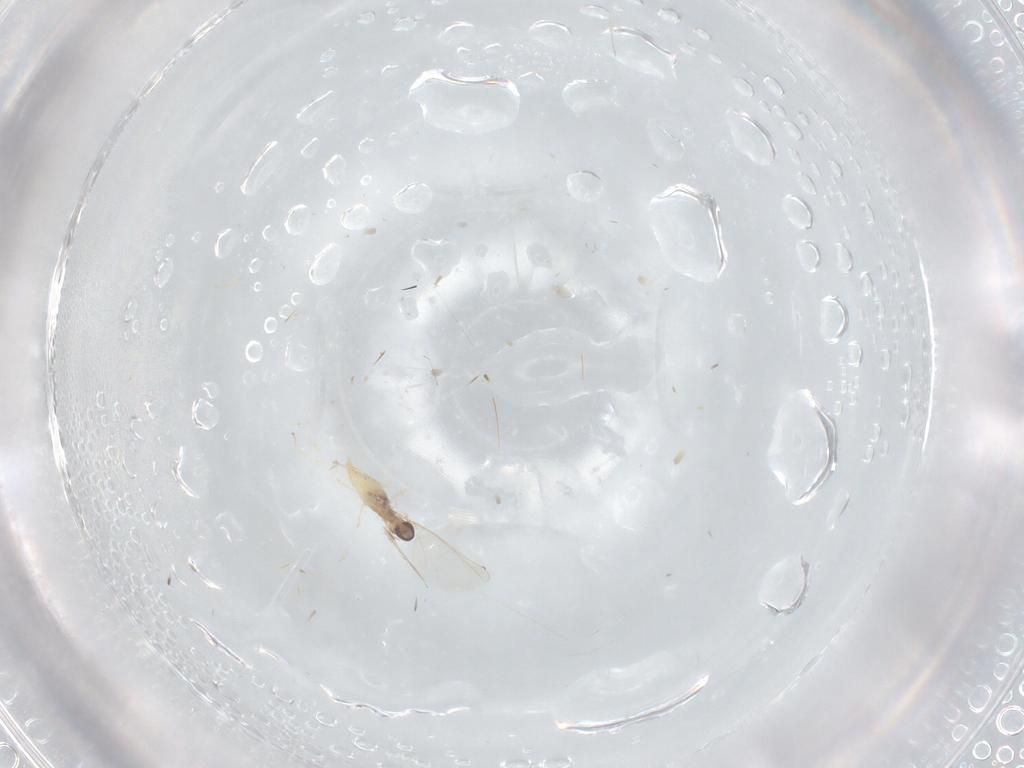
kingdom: Animalia
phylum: Arthropoda
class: Insecta
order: Diptera
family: Cecidomyiidae
